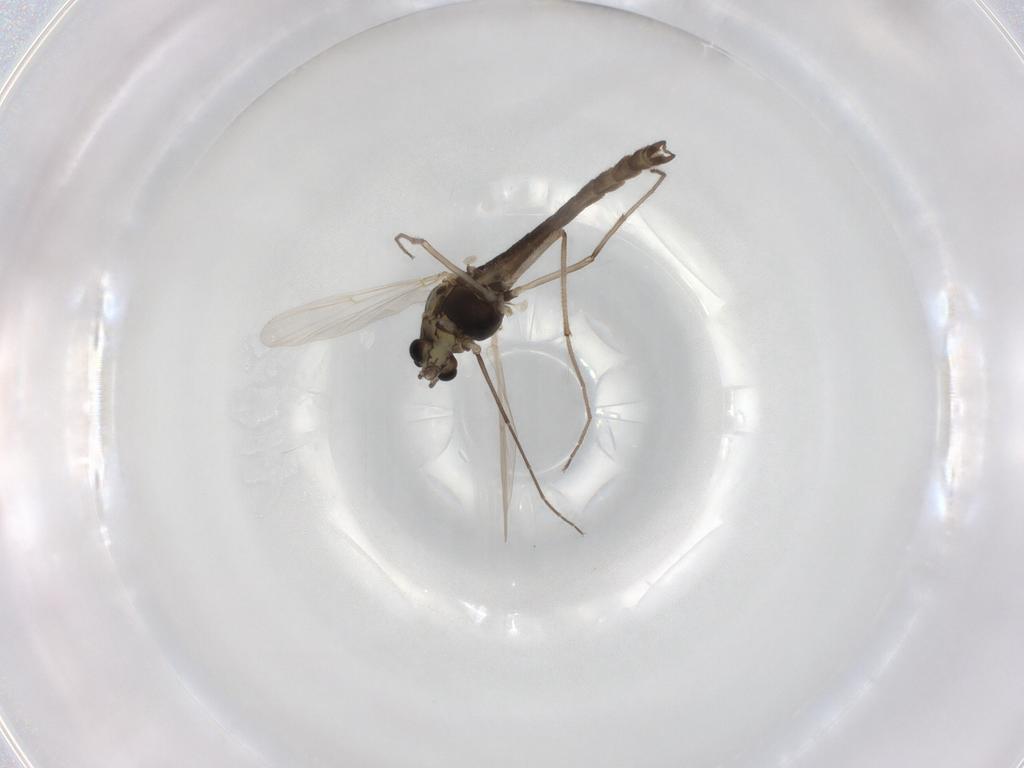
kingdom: Animalia
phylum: Arthropoda
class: Insecta
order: Diptera
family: Chironomidae
